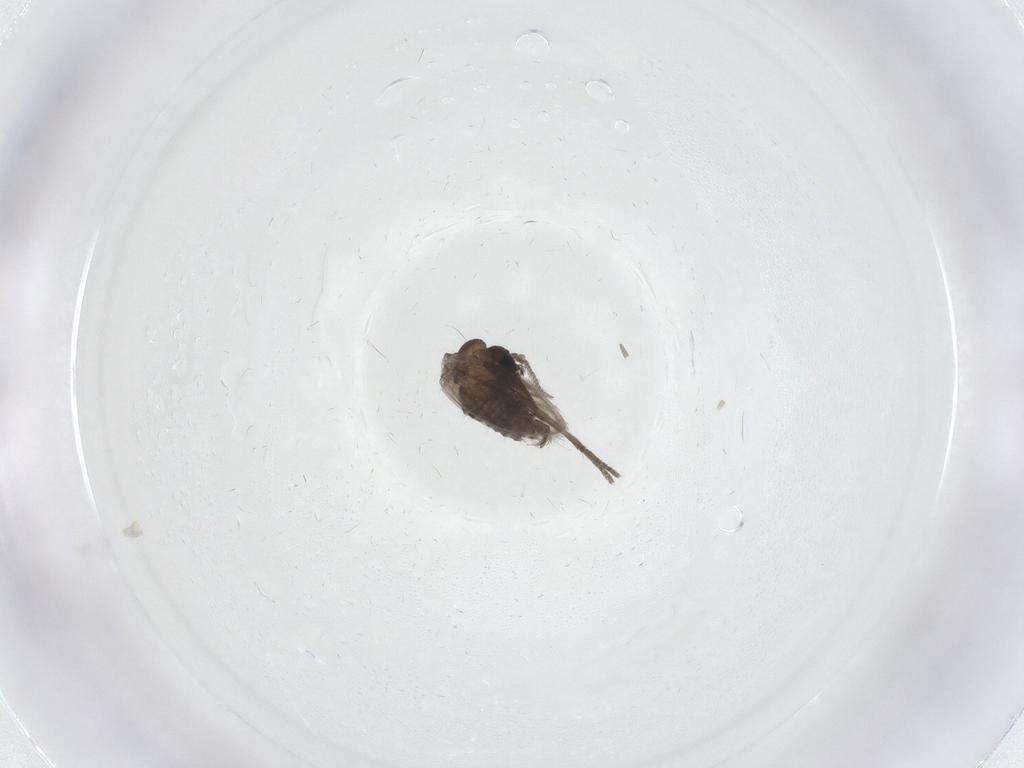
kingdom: Animalia
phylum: Arthropoda
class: Insecta
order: Diptera
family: Psychodidae
